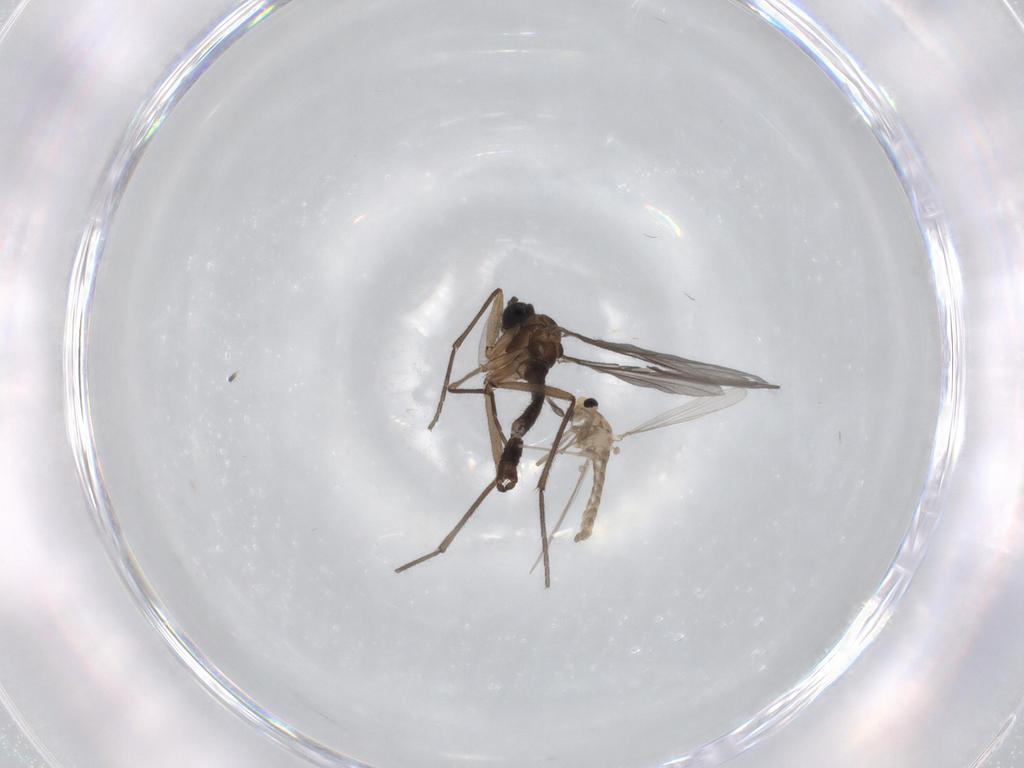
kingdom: Animalia
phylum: Arthropoda
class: Insecta
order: Diptera
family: Sciaridae
